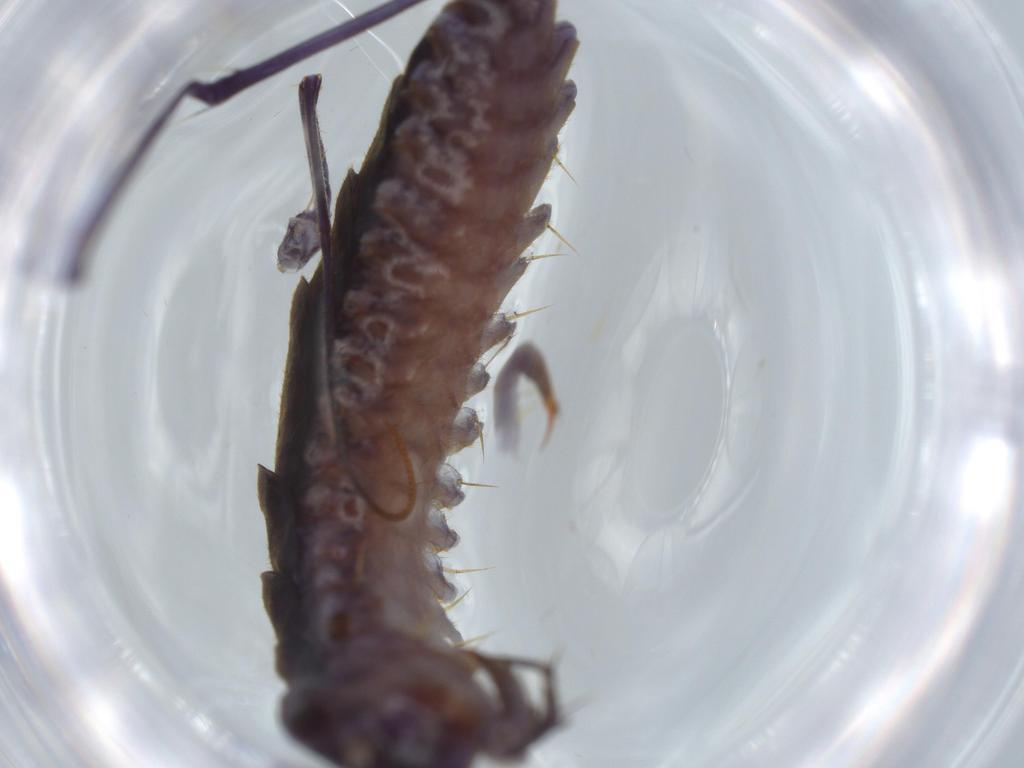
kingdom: Animalia
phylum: Arthropoda
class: Chilopoda
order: Scutigeromorpha
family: Scutigeridae
